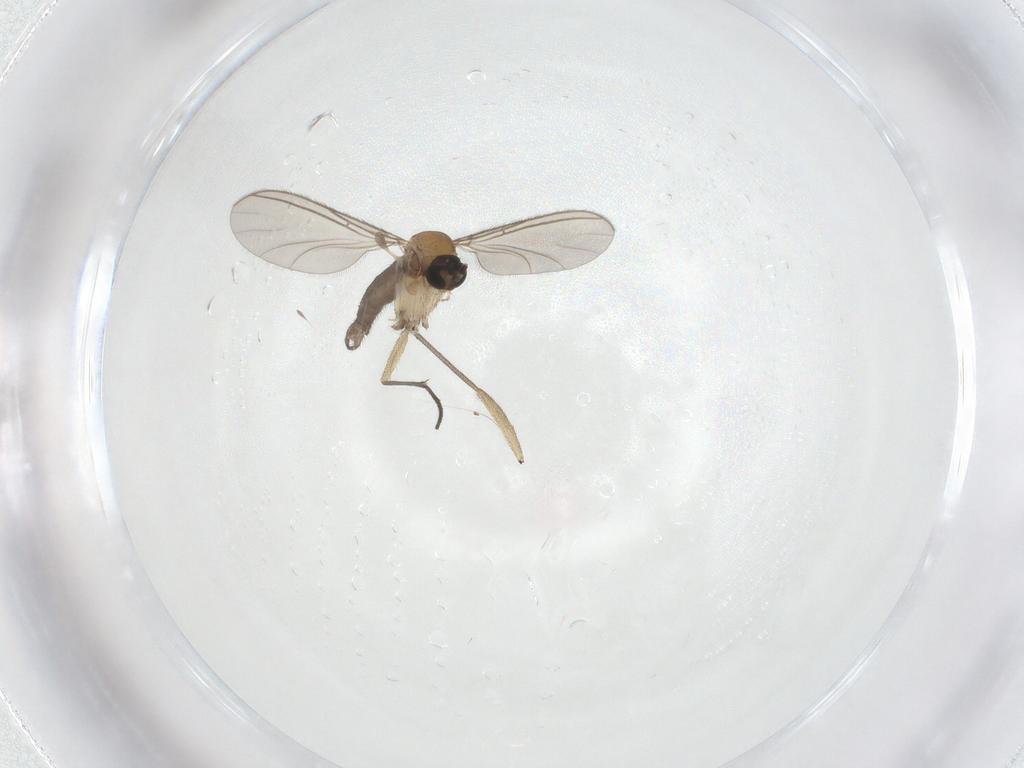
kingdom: Animalia
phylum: Arthropoda
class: Insecta
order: Diptera
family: Sciaridae
